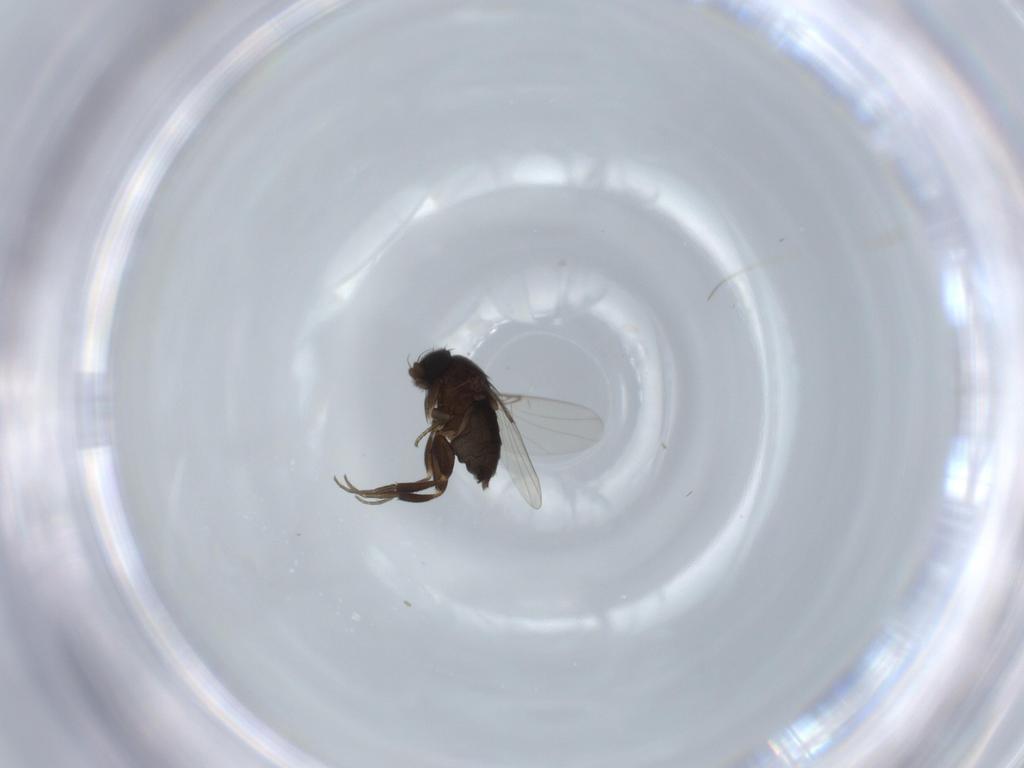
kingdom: Animalia
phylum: Arthropoda
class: Insecta
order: Diptera
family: Phoridae
